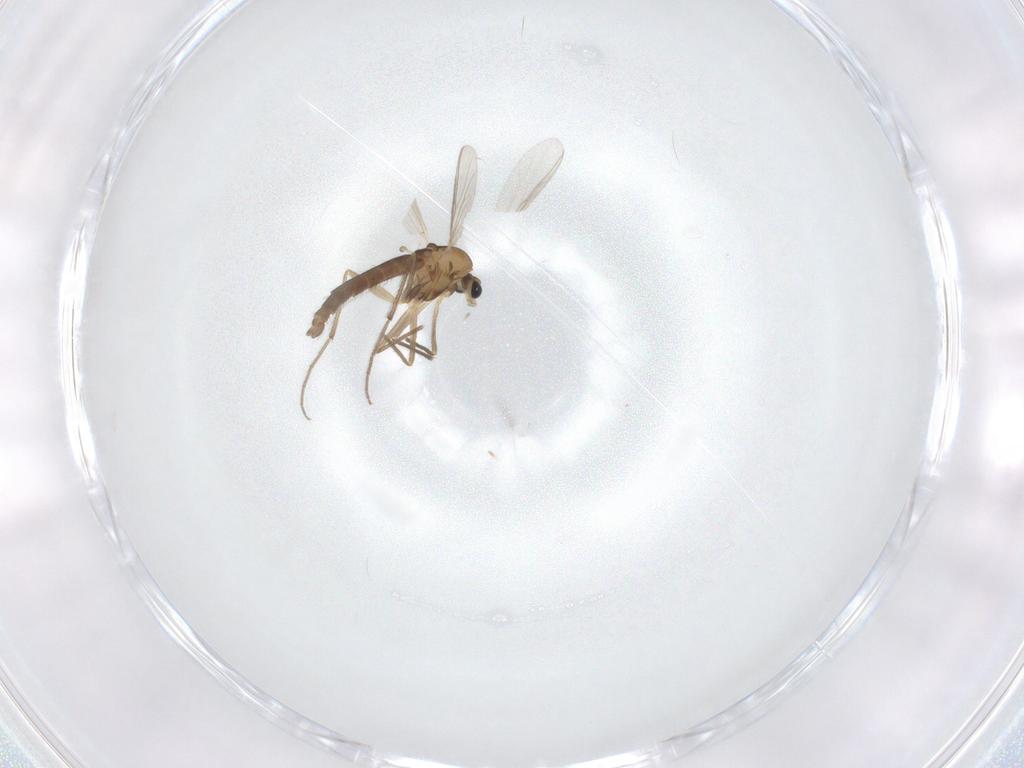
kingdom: Animalia
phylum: Arthropoda
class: Insecta
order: Diptera
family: Chironomidae
